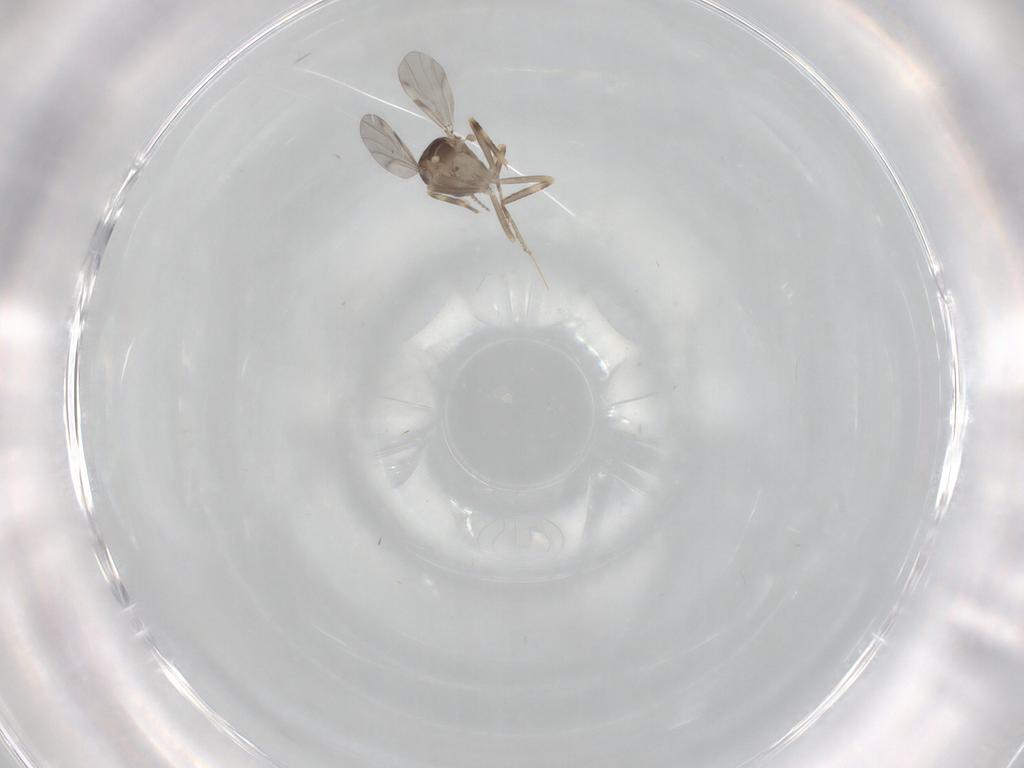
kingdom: Animalia
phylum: Arthropoda
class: Insecta
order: Diptera
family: Ceratopogonidae
